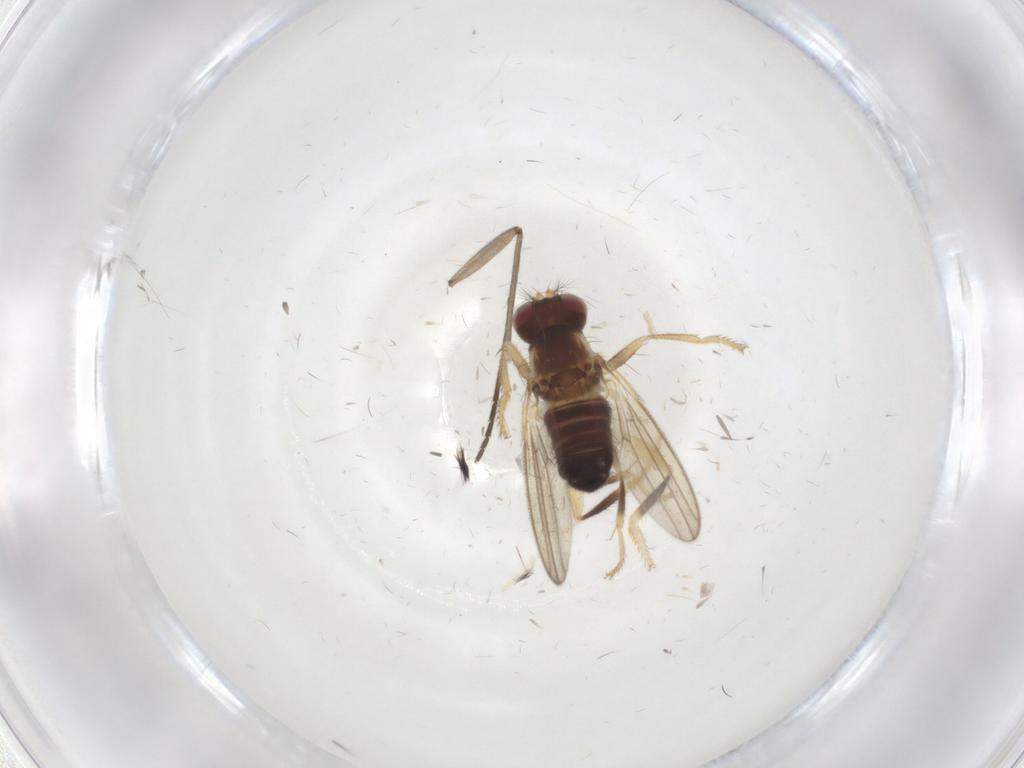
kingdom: Animalia
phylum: Arthropoda
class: Insecta
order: Diptera
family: Periscelididae
